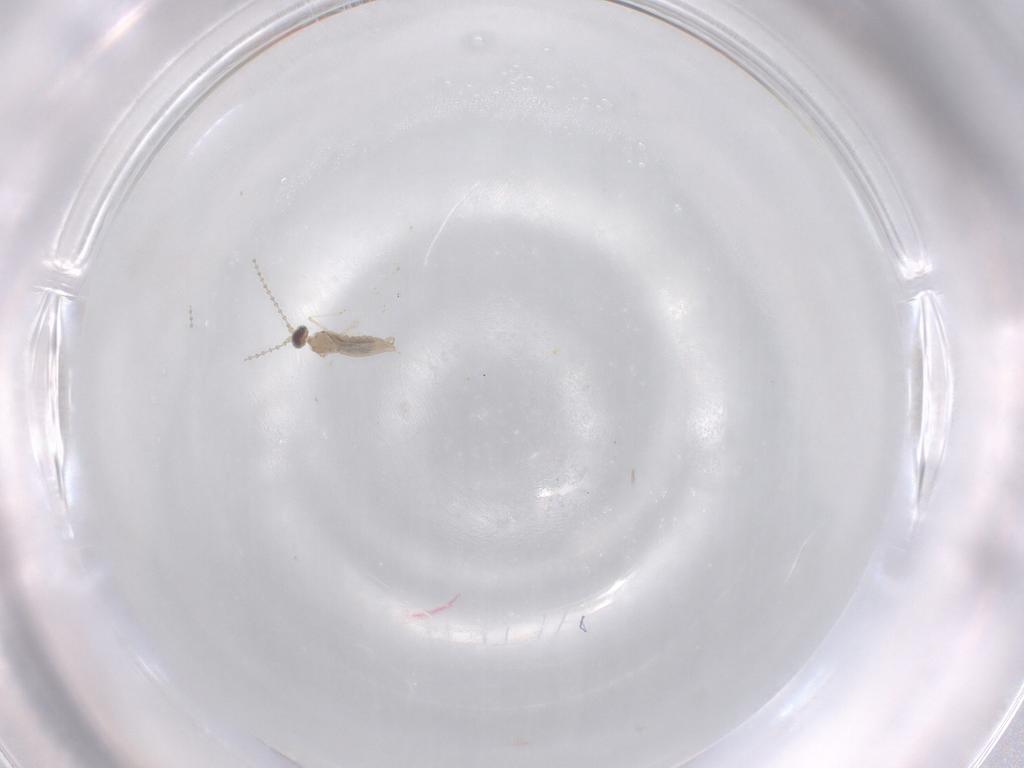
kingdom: Animalia
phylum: Arthropoda
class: Insecta
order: Diptera
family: Cecidomyiidae
